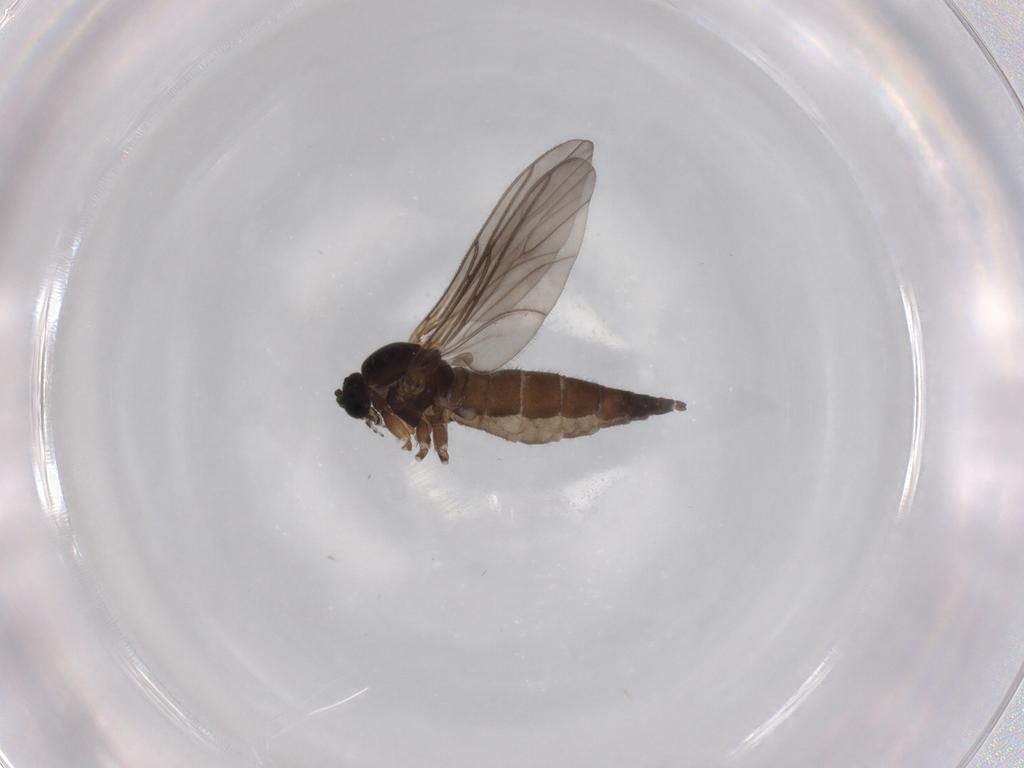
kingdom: Animalia
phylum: Arthropoda
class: Insecta
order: Diptera
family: Sciaridae
